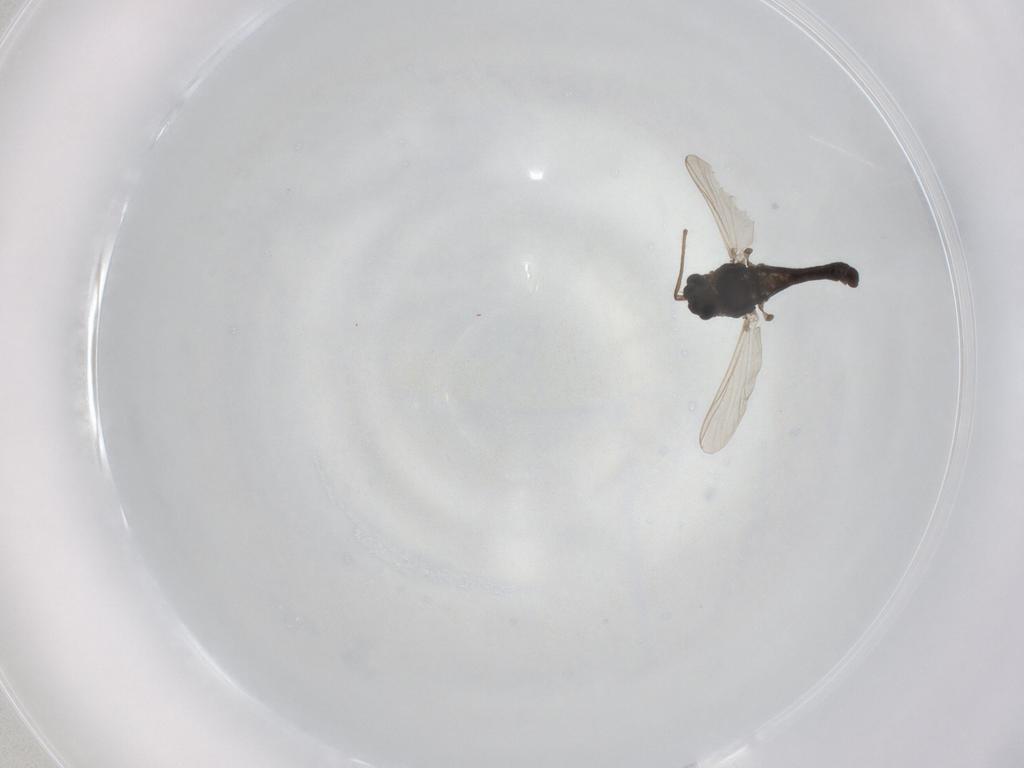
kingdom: Animalia
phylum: Arthropoda
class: Insecta
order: Diptera
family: Chironomidae
